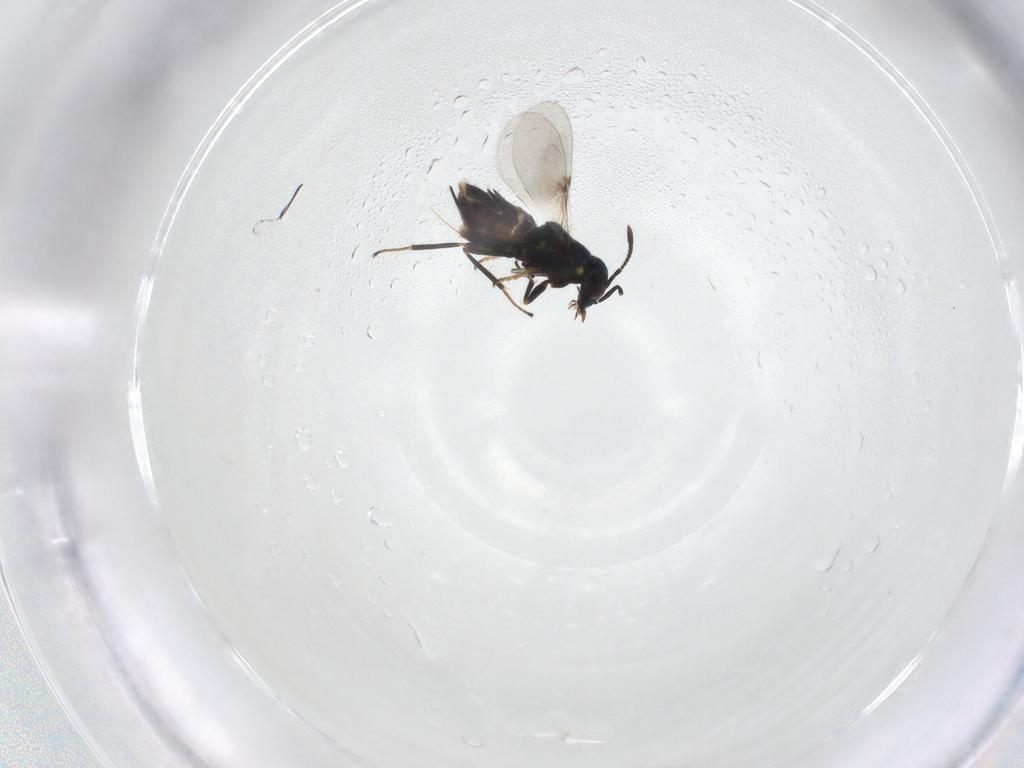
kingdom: Animalia
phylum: Arthropoda
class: Insecta
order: Hymenoptera
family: Encyrtidae
